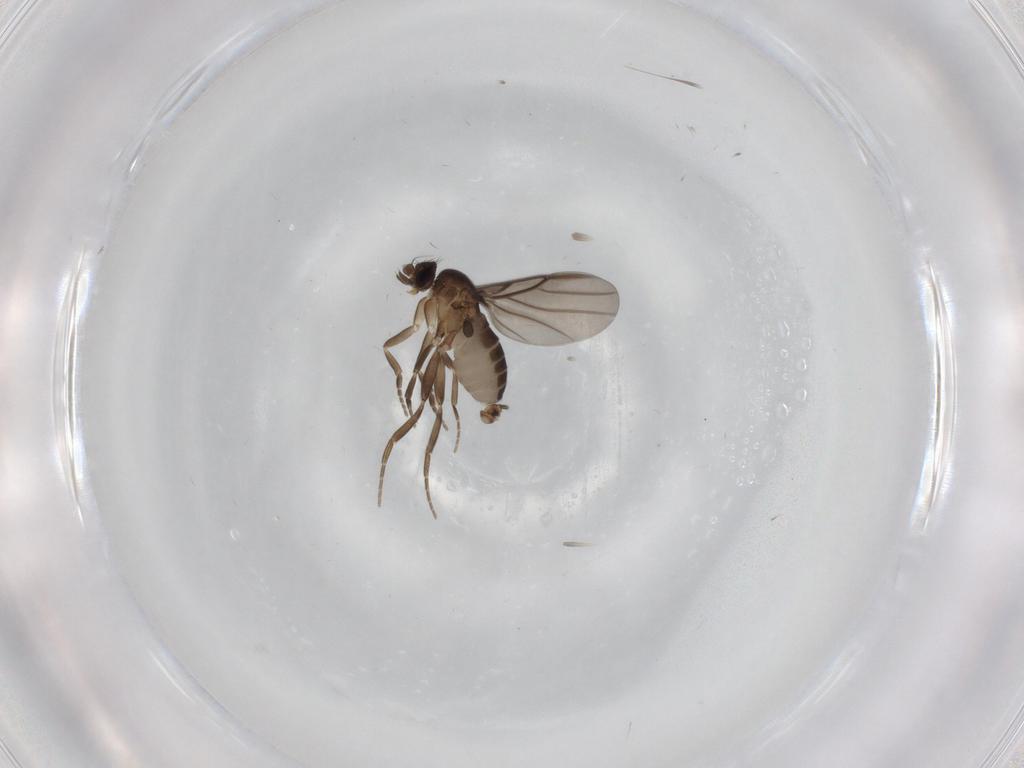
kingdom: Animalia
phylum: Arthropoda
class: Insecta
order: Diptera
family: Phoridae
